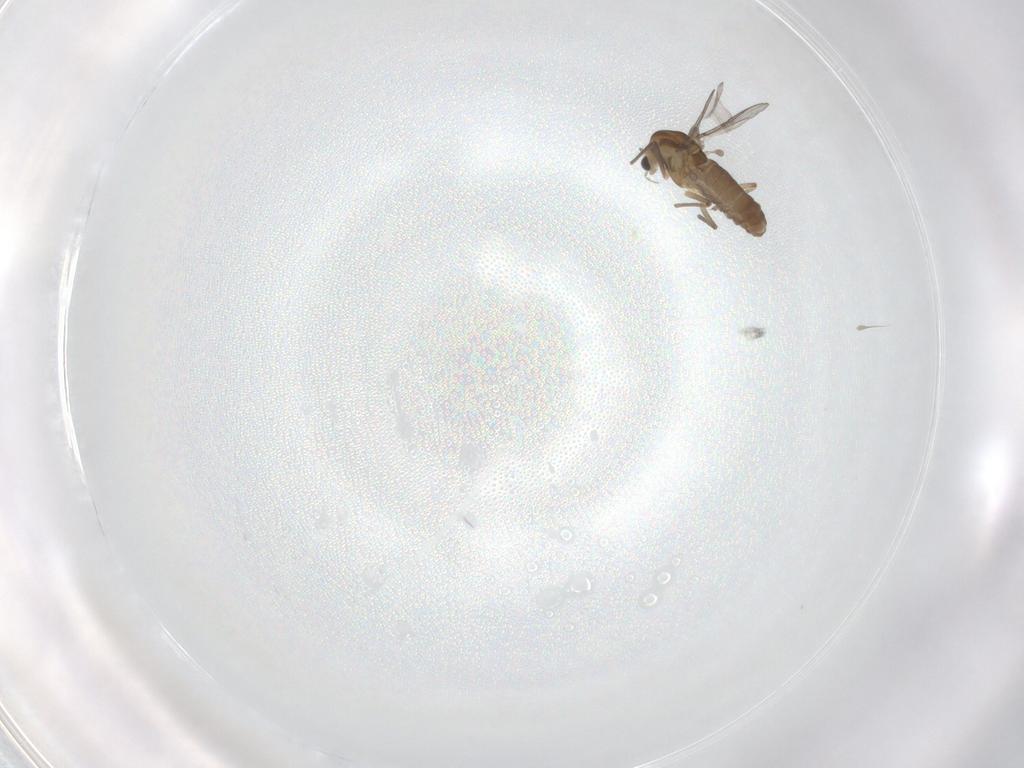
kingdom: Animalia
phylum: Arthropoda
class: Insecta
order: Diptera
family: Chironomidae
